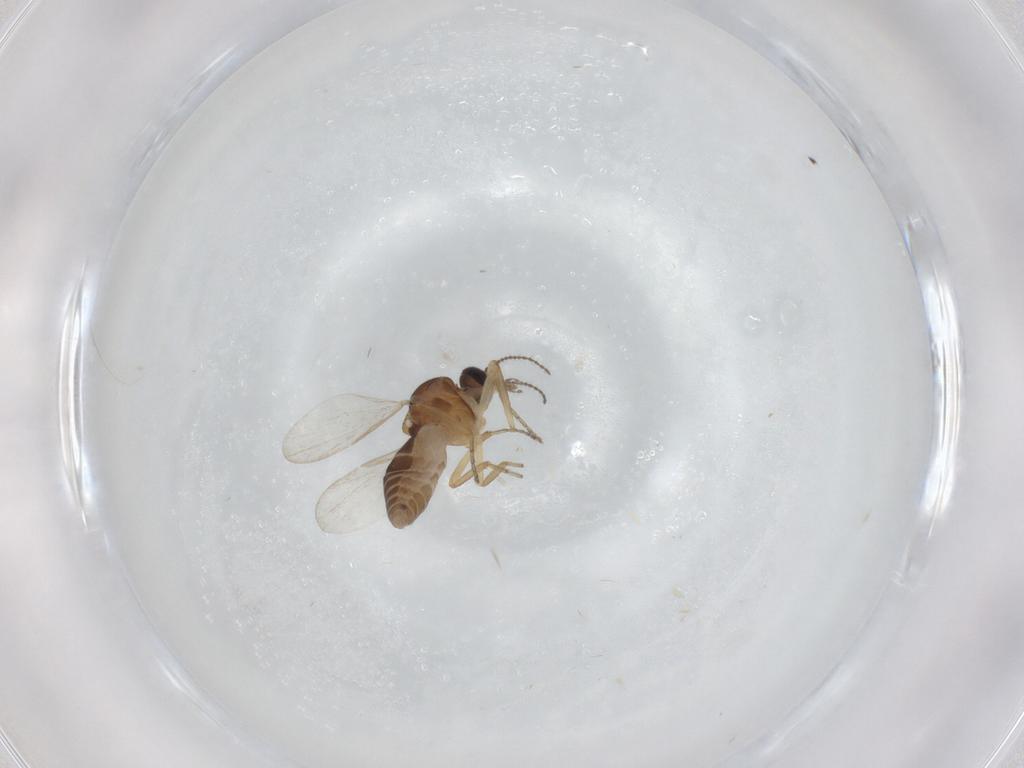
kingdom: Animalia
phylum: Arthropoda
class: Insecta
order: Diptera
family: Ceratopogonidae
